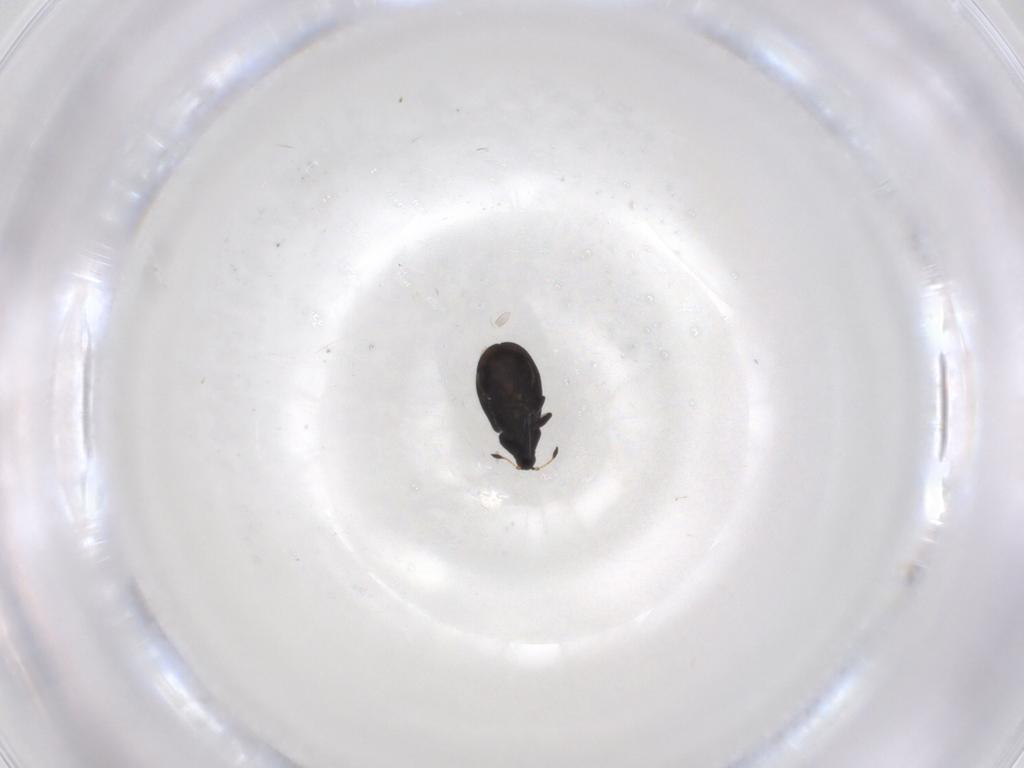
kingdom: Animalia
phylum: Arthropoda
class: Insecta
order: Coleoptera
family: Curculionidae
